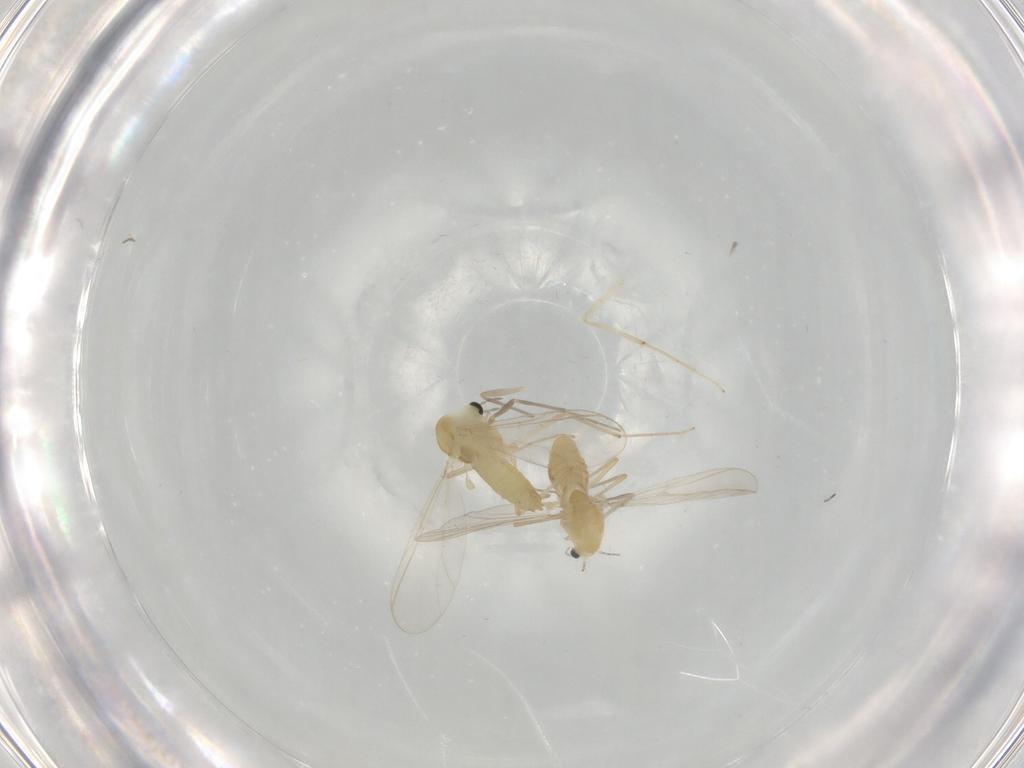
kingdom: Animalia
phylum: Arthropoda
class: Insecta
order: Diptera
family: Chironomidae
